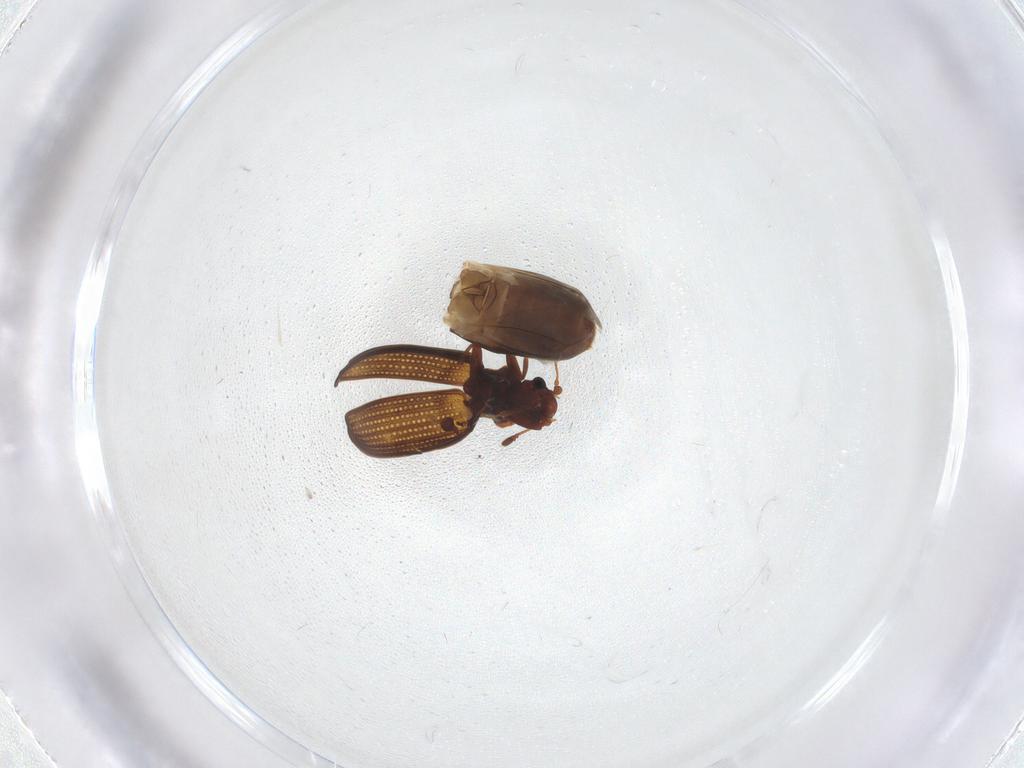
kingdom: Animalia
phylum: Arthropoda
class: Insecta
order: Coleoptera
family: Latridiidae
